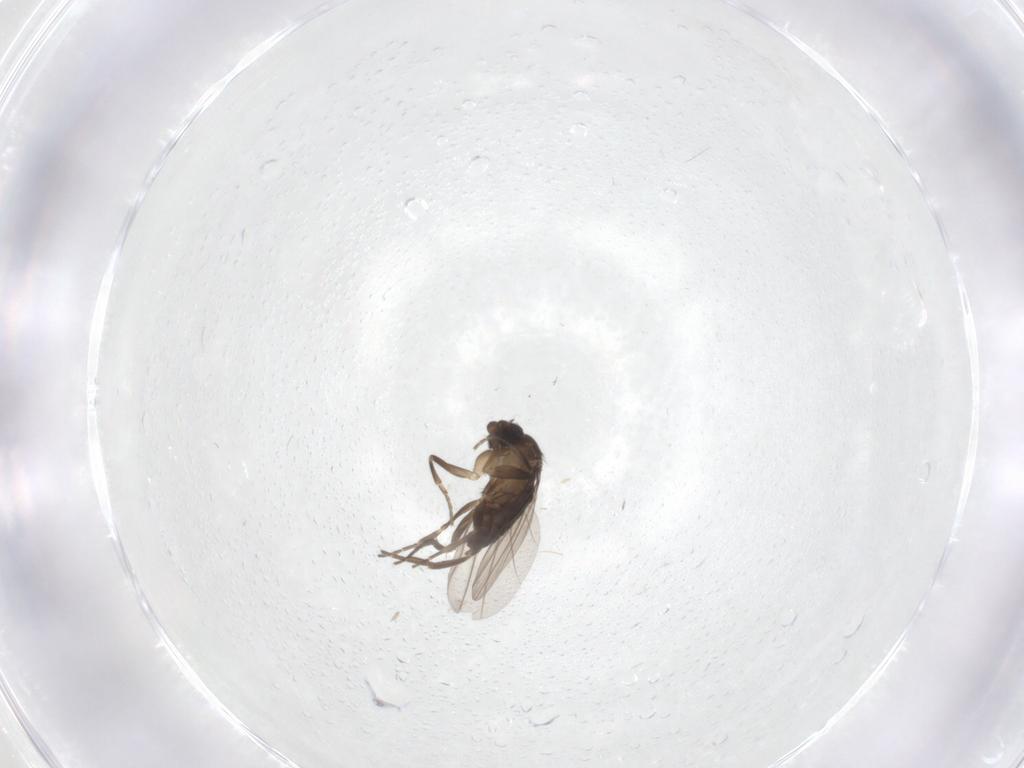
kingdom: Animalia
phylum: Arthropoda
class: Insecta
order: Diptera
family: Phoridae
